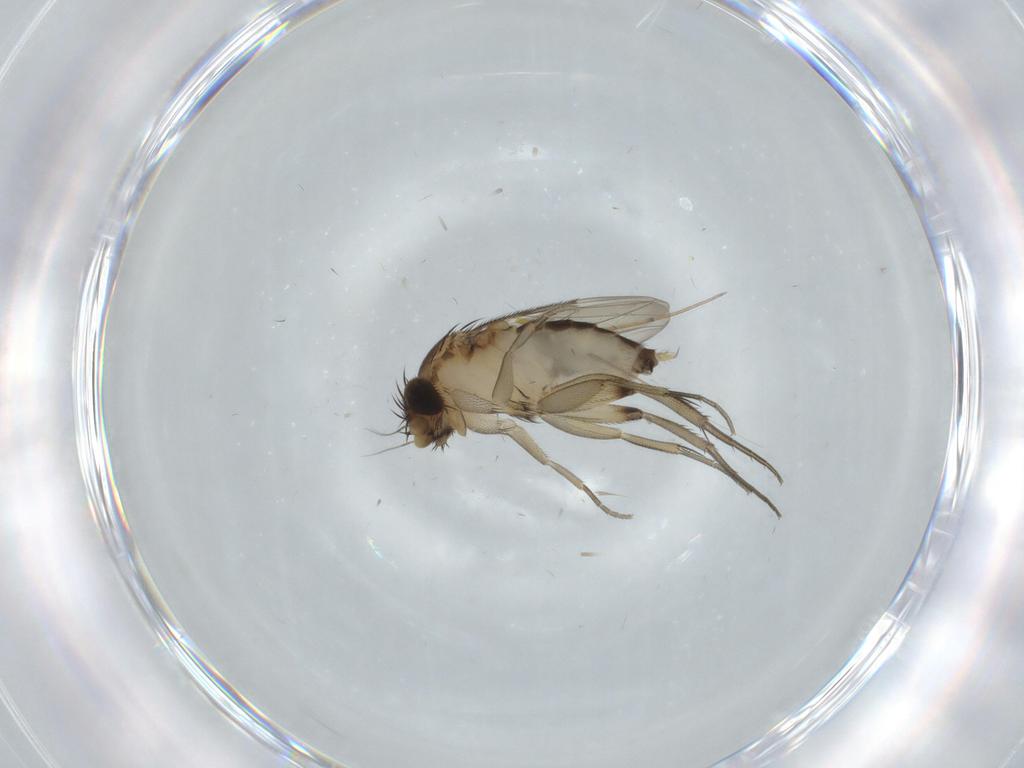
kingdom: Animalia
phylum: Arthropoda
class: Insecta
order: Diptera
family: Phoridae
